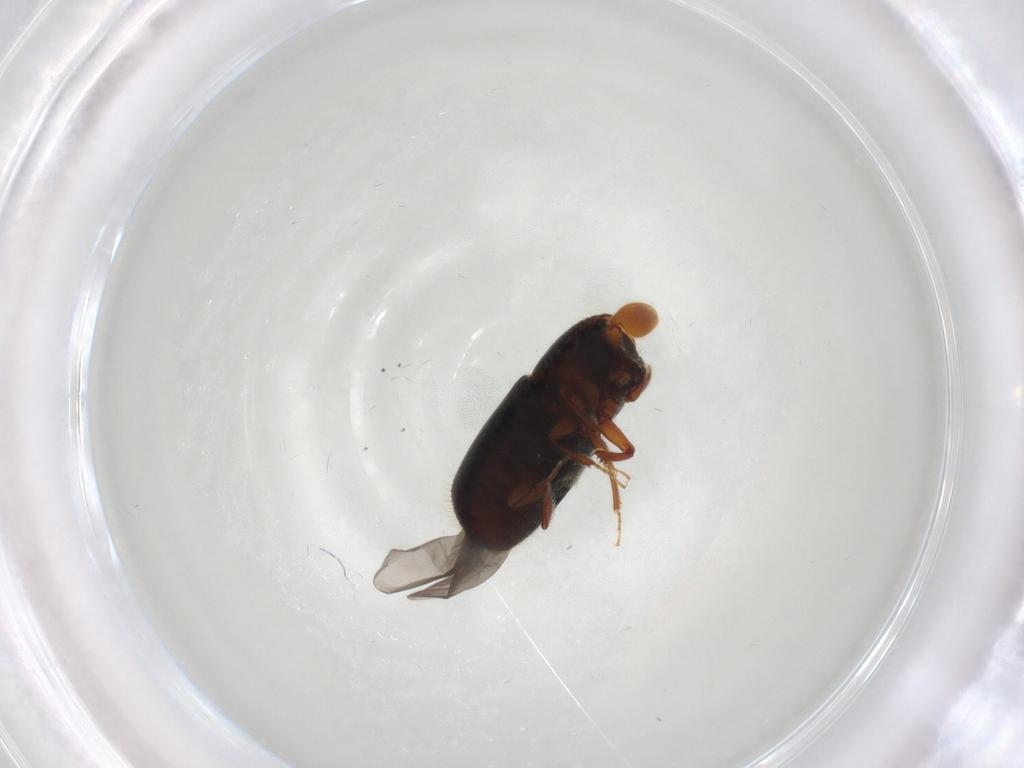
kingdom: Animalia
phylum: Arthropoda
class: Insecta
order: Coleoptera
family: Curculionidae
